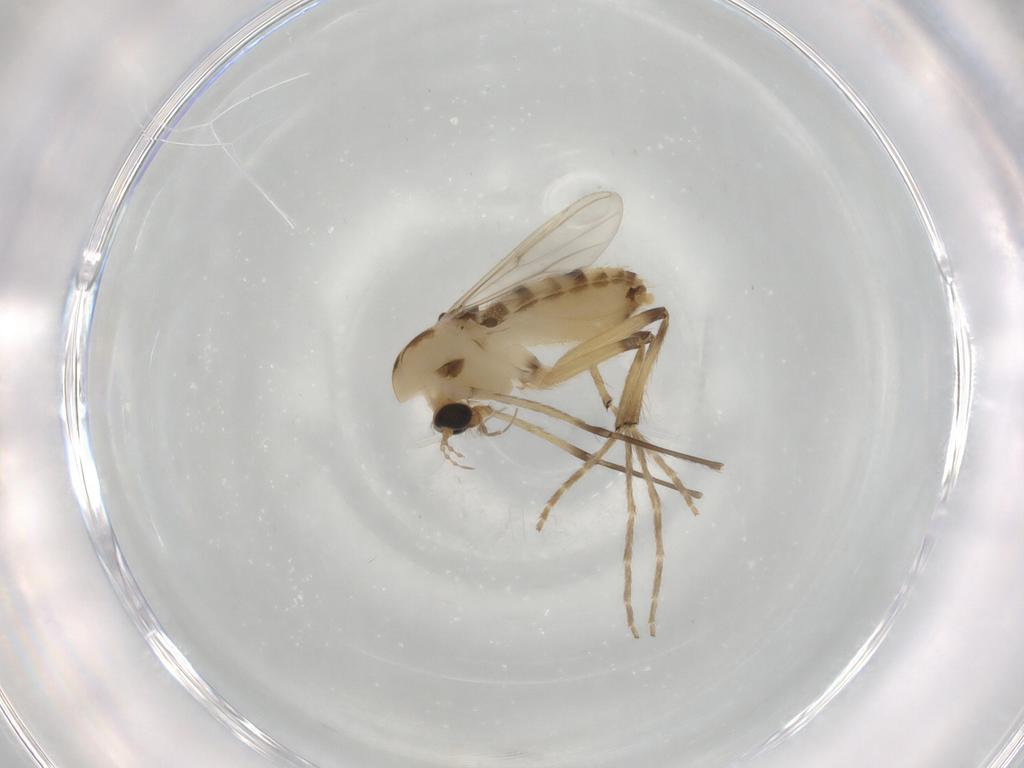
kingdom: Animalia
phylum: Arthropoda
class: Insecta
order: Diptera
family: Chironomidae
